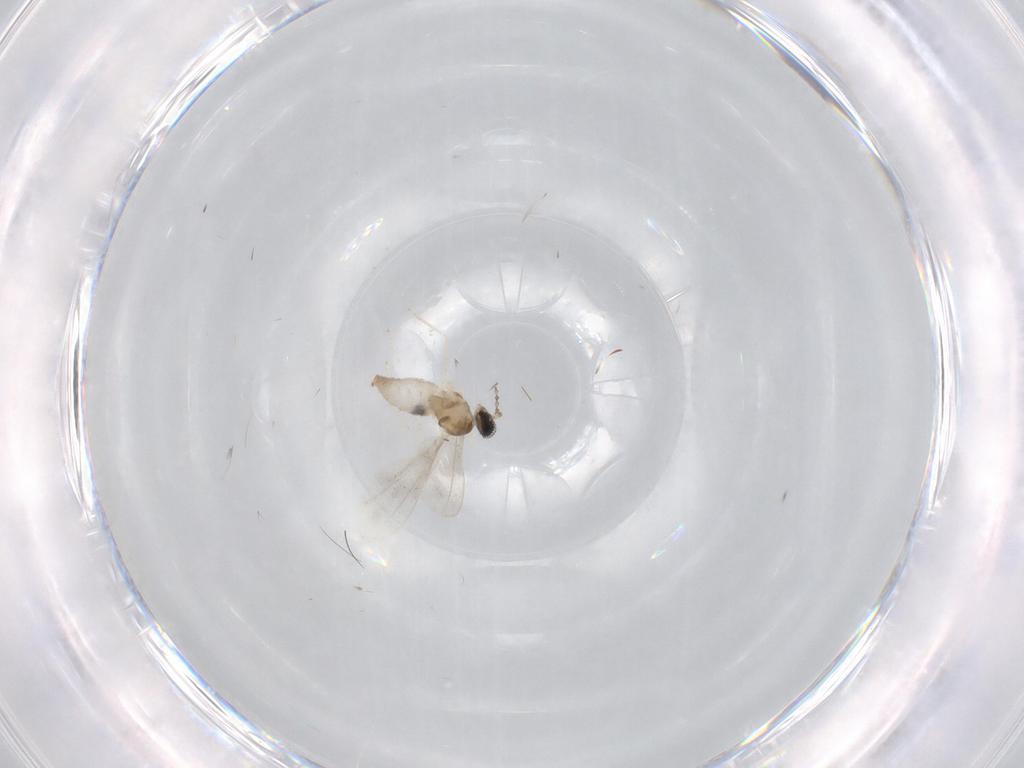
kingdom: Animalia
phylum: Arthropoda
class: Insecta
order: Diptera
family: Cecidomyiidae
